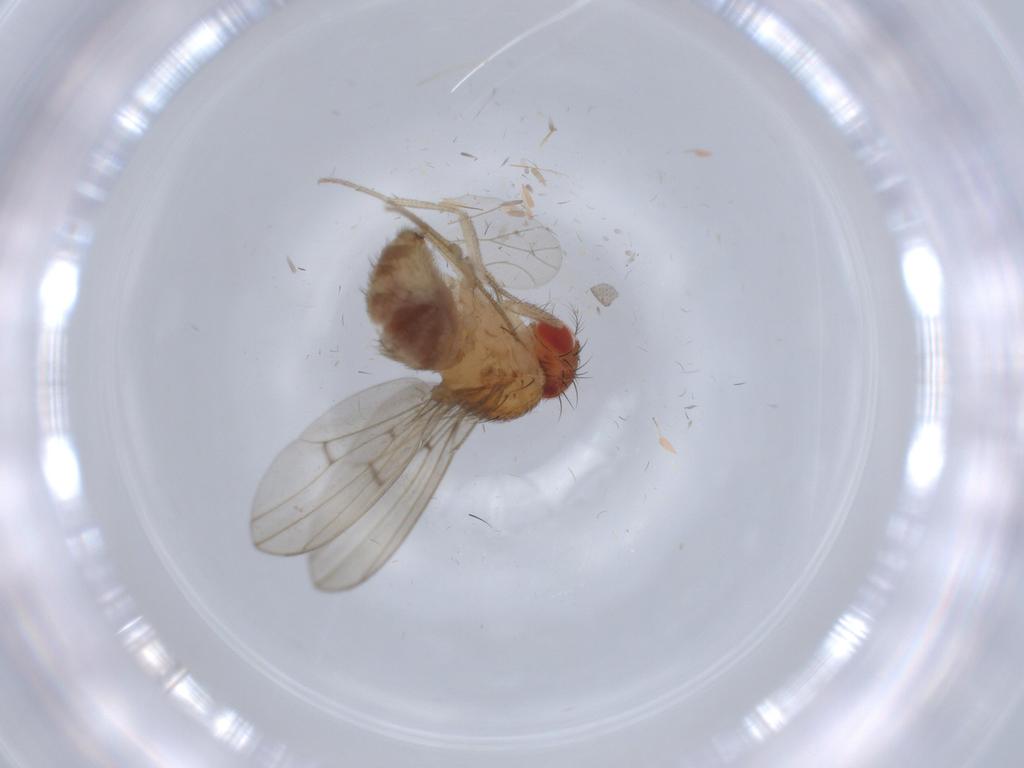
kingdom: Animalia
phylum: Arthropoda
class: Insecta
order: Diptera
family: Drosophilidae
